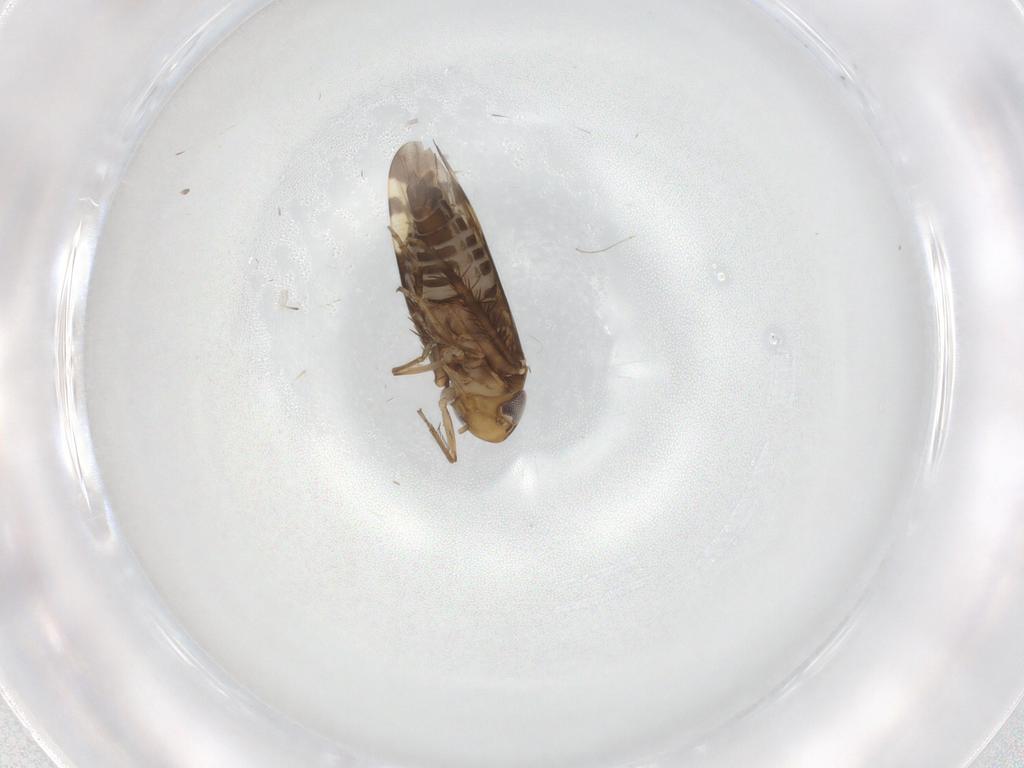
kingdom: Animalia
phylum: Arthropoda
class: Insecta
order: Hemiptera
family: Cicadellidae
